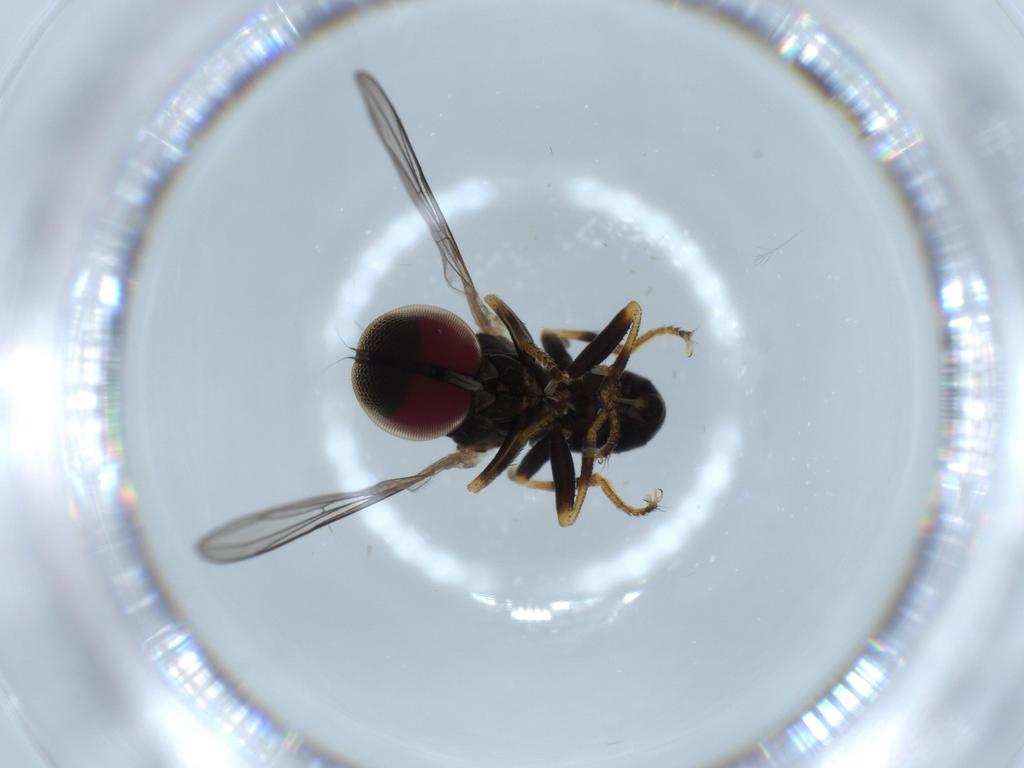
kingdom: Animalia
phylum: Arthropoda
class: Insecta
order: Diptera
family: Pipunculidae
